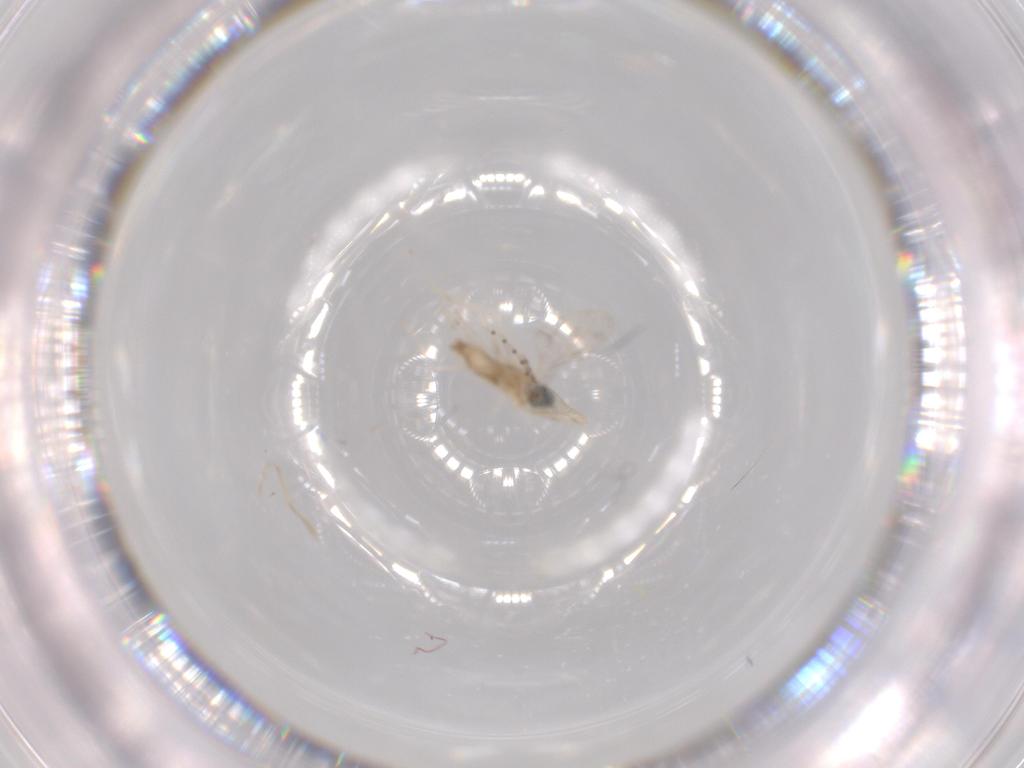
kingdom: Animalia
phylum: Arthropoda
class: Insecta
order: Diptera
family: Cecidomyiidae
